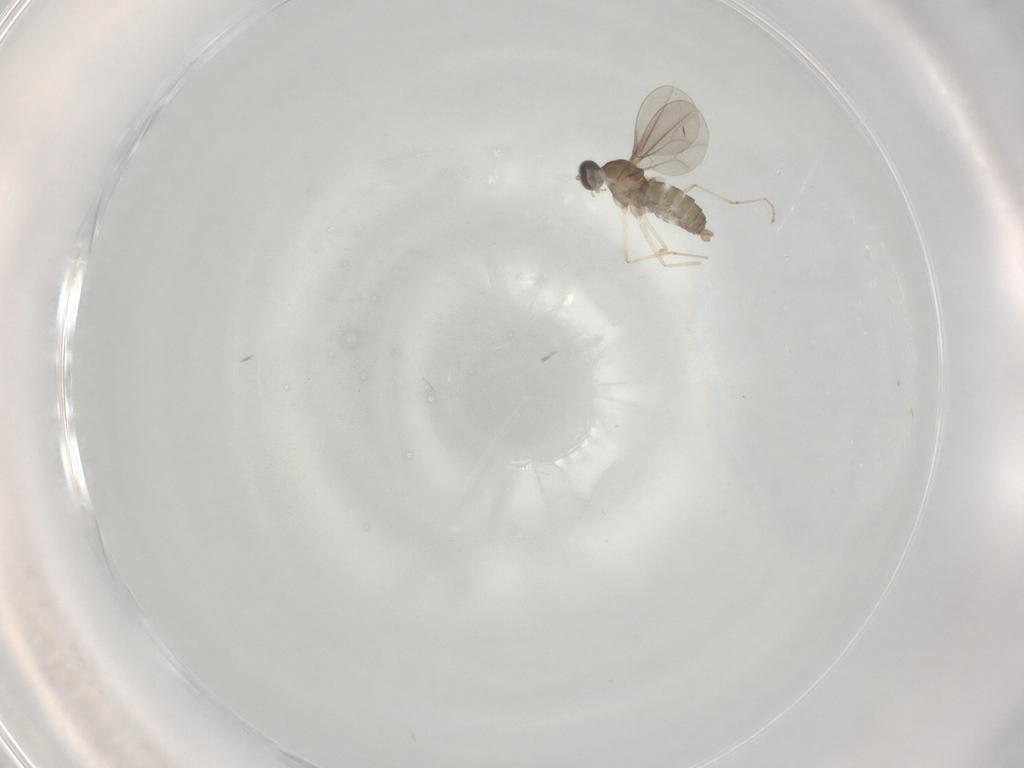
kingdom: Animalia
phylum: Arthropoda
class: Insecta
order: Diptera
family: Cecidomyiidae
